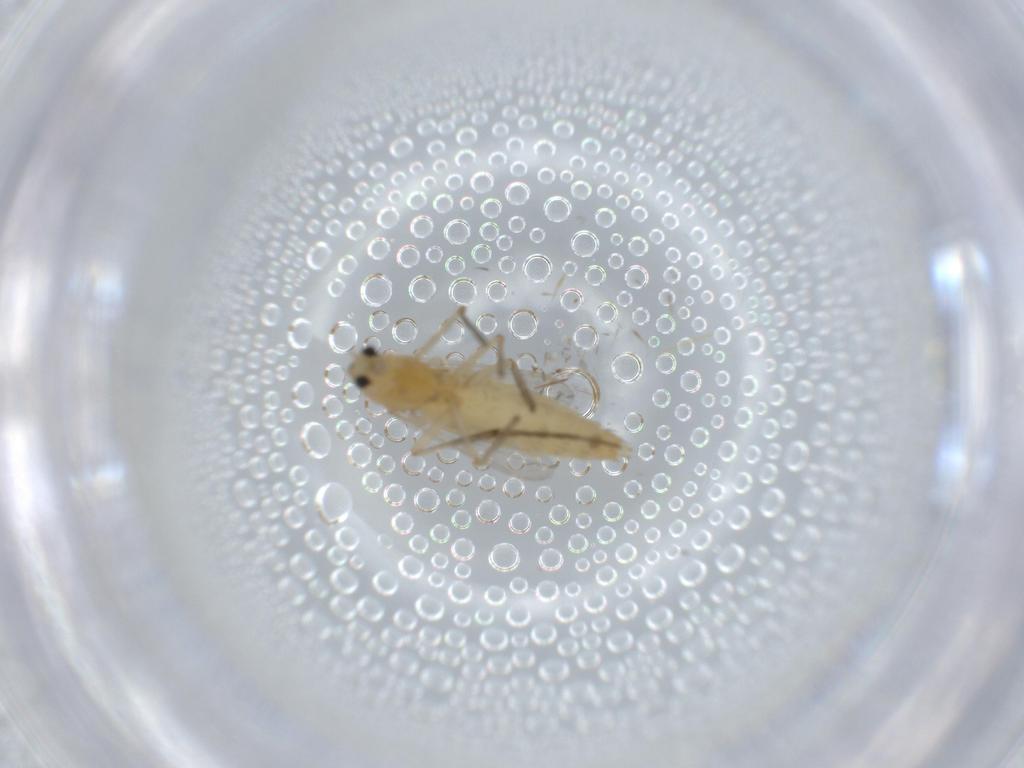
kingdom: Animalia
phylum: Arthropoda
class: Insecta
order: Diptera
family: Chironomidae
